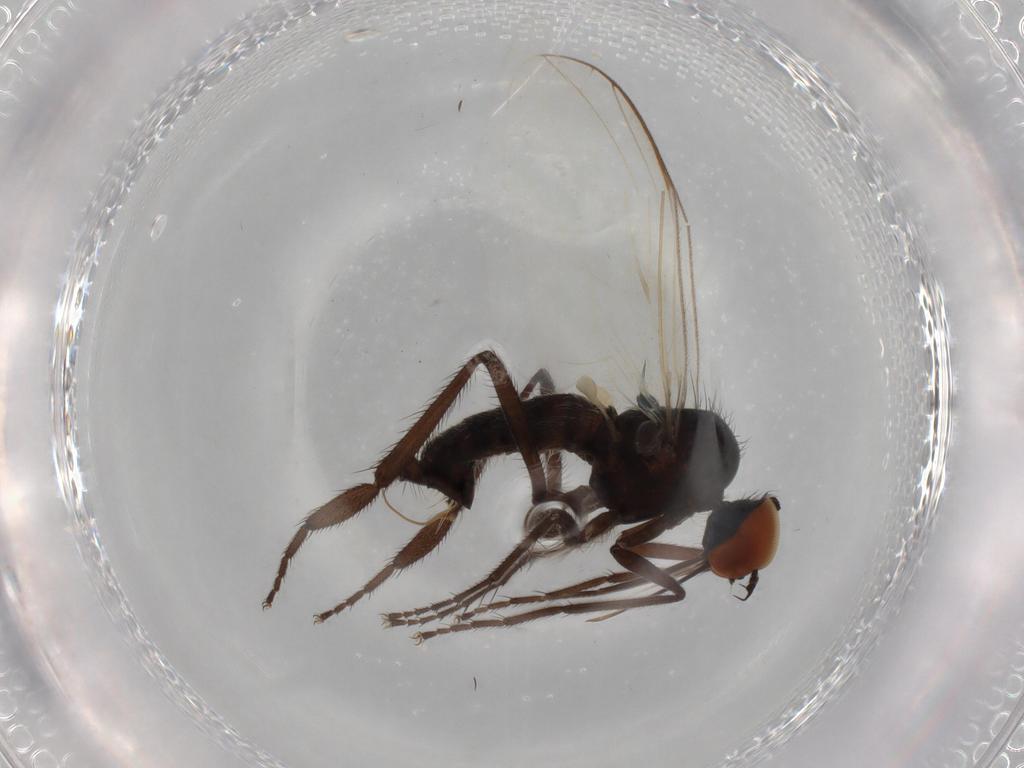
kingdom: Animalia
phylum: Arthropoda
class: Insecta
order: Diptera
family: Empididae
